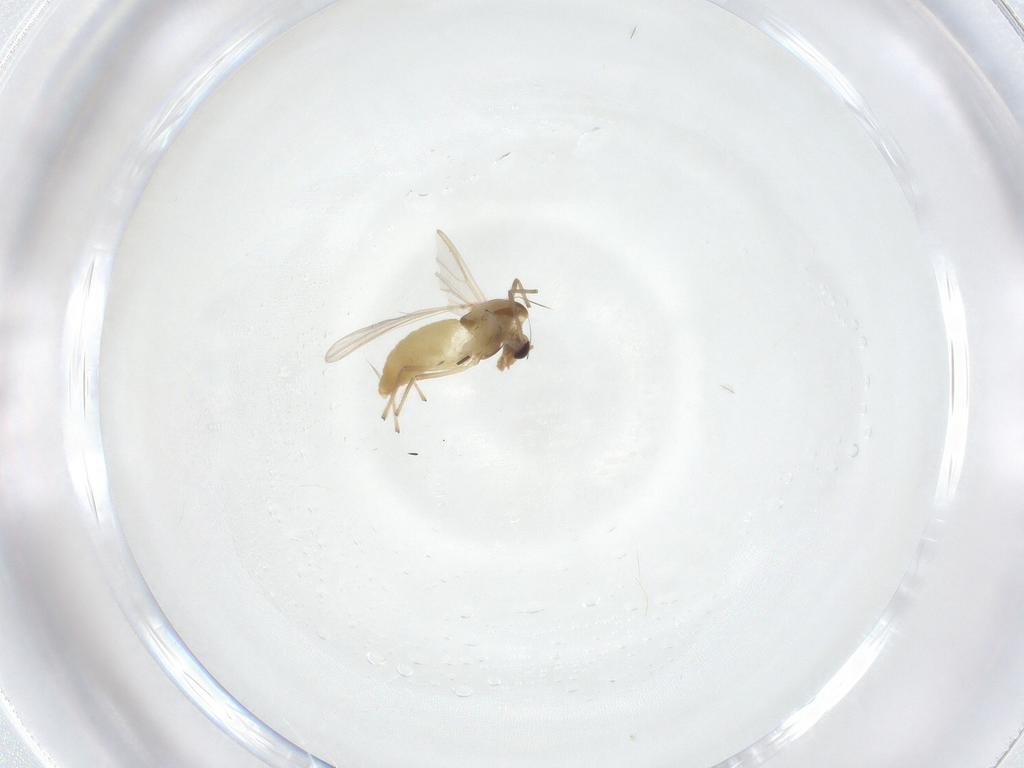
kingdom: Animalia
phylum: Arthropoda
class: Insecta
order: Diptera
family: Chironomidae
